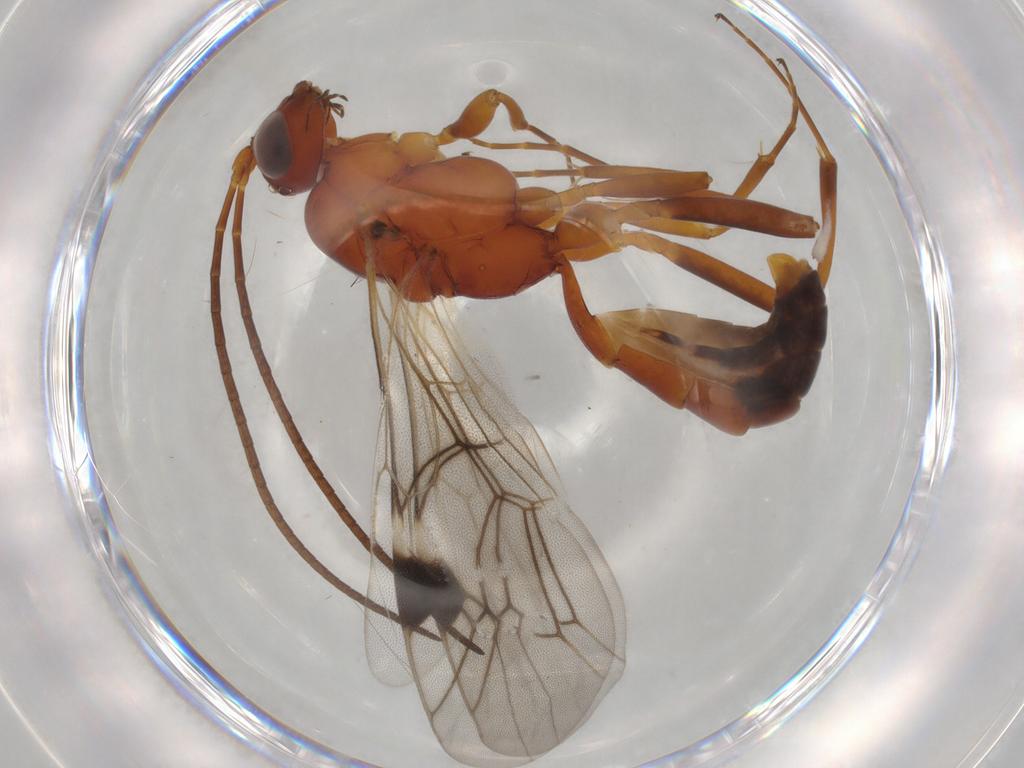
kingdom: Animalia
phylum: Arthropoda
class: Insecta
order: Hymenoptera
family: Ichneumonidae
